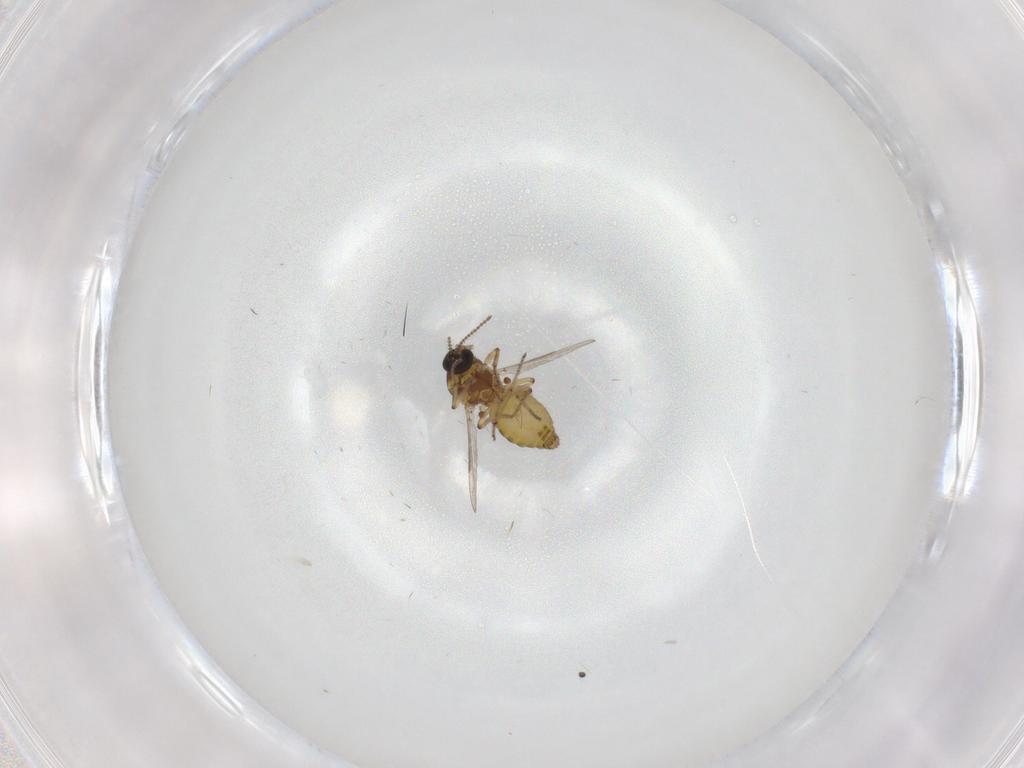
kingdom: Animalia
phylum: Arthropoda
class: Insecta
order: Diptera
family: Ceratopogonidae
